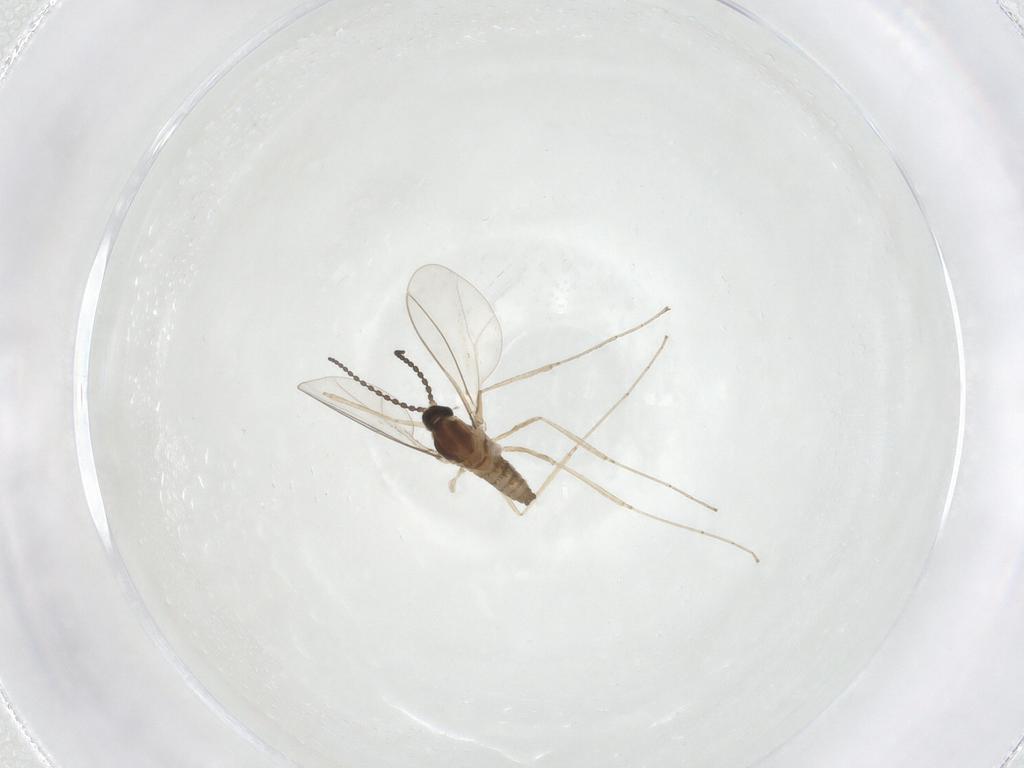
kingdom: Animalia
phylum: Arthropoda
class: Insecta
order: Diptera
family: Cecidomyiidae
